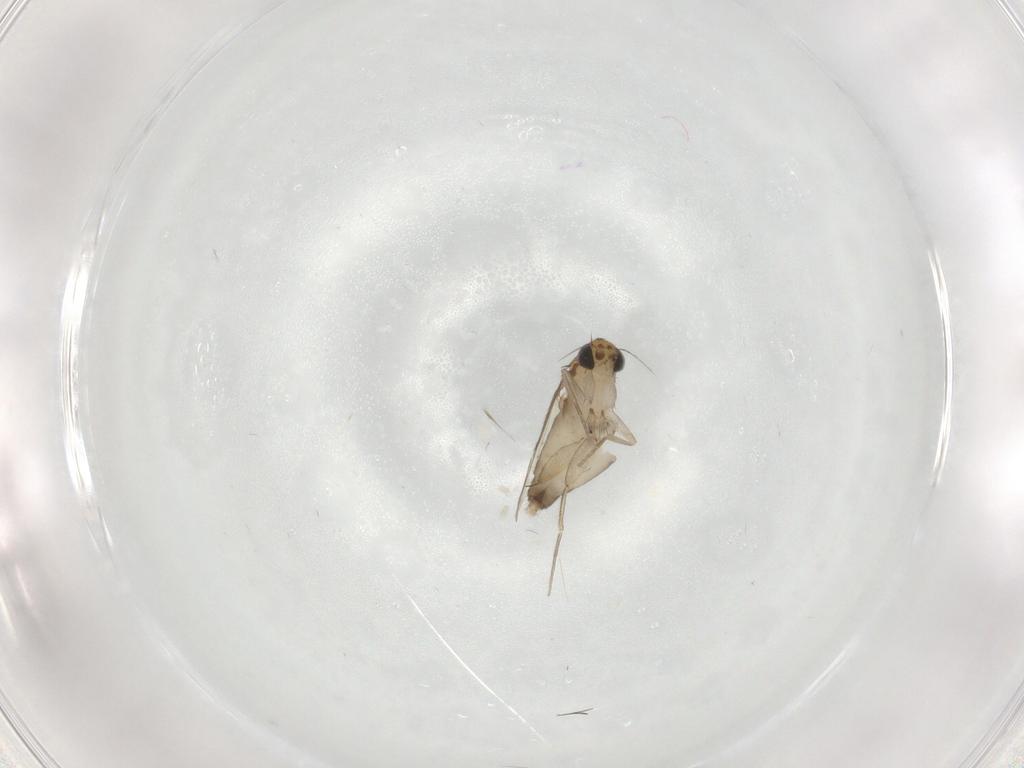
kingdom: Animalia
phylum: Arthropoda
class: Insecta
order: Diptera
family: Phoridae
